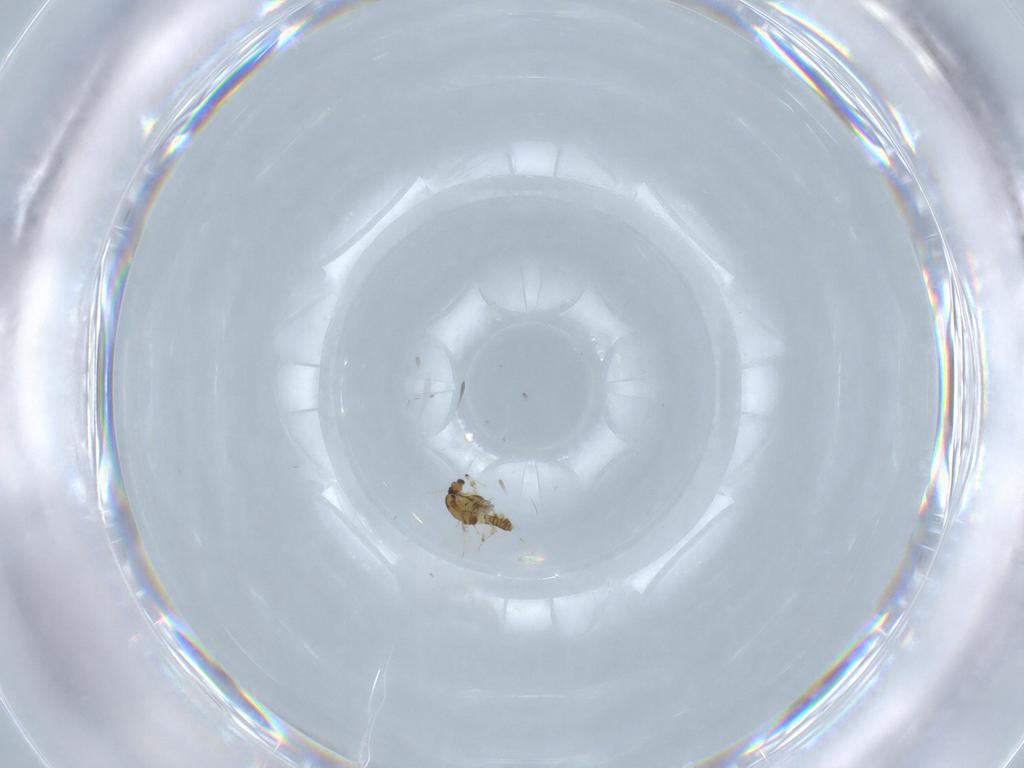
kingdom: Animalia
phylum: Arthropoda
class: Insecta
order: Diptera
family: Chironomidae
